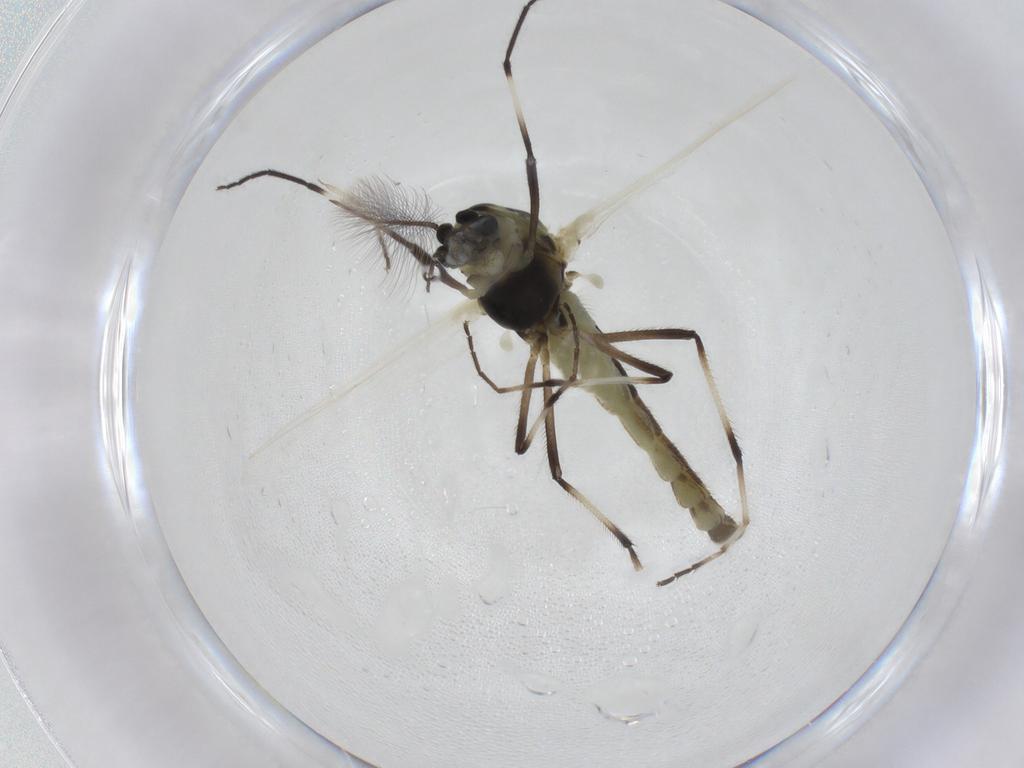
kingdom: Animalia
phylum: Arthropoda
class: Insecta
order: Diptera
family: Chironomidae
